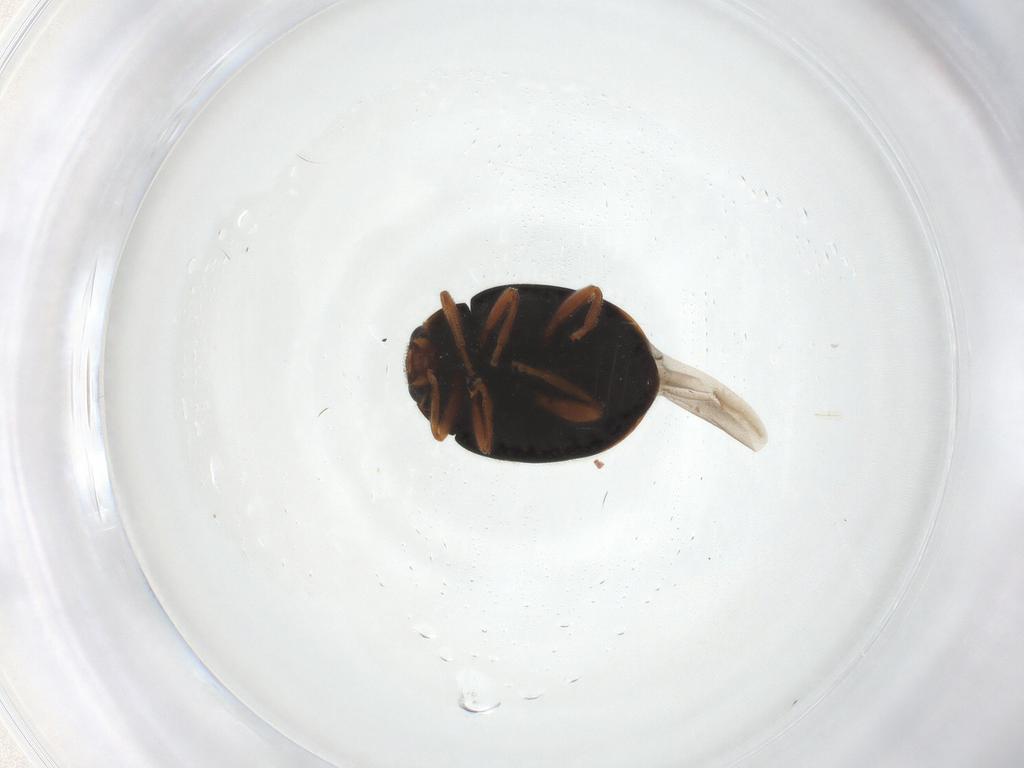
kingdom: Animalia
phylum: Arthropoda
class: Insecta
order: Coleoptera
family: Coccinellidae
